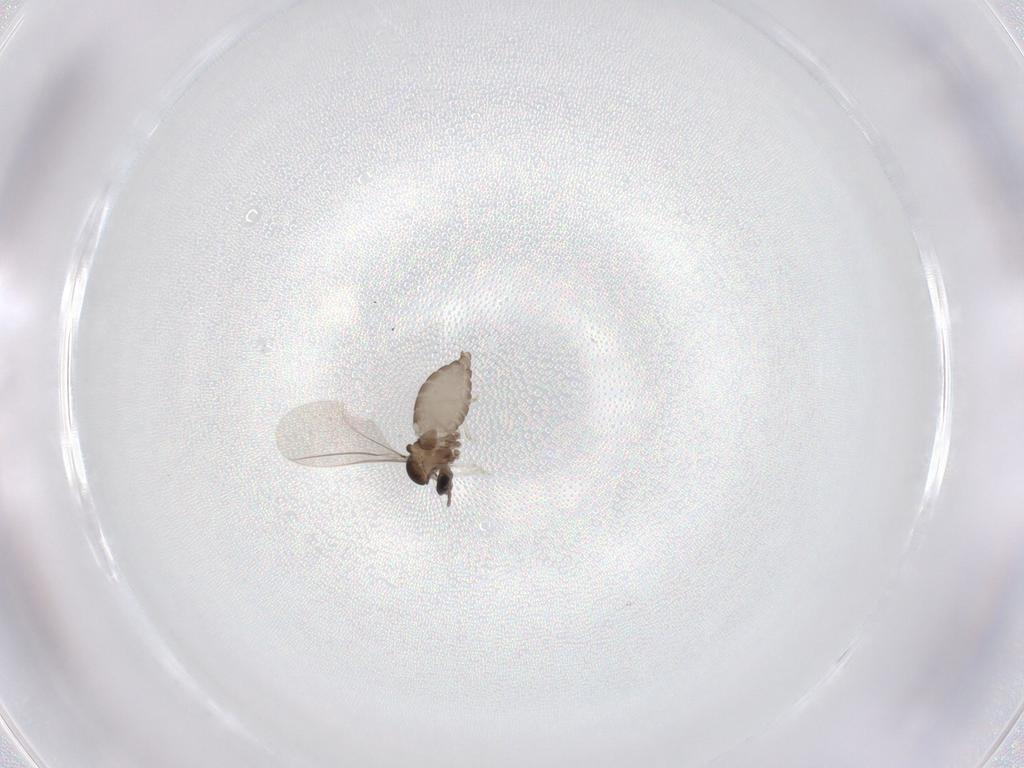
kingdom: Animalia
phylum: Arthropoda
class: Insecta
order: Diptera
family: Cecidomyiidae
